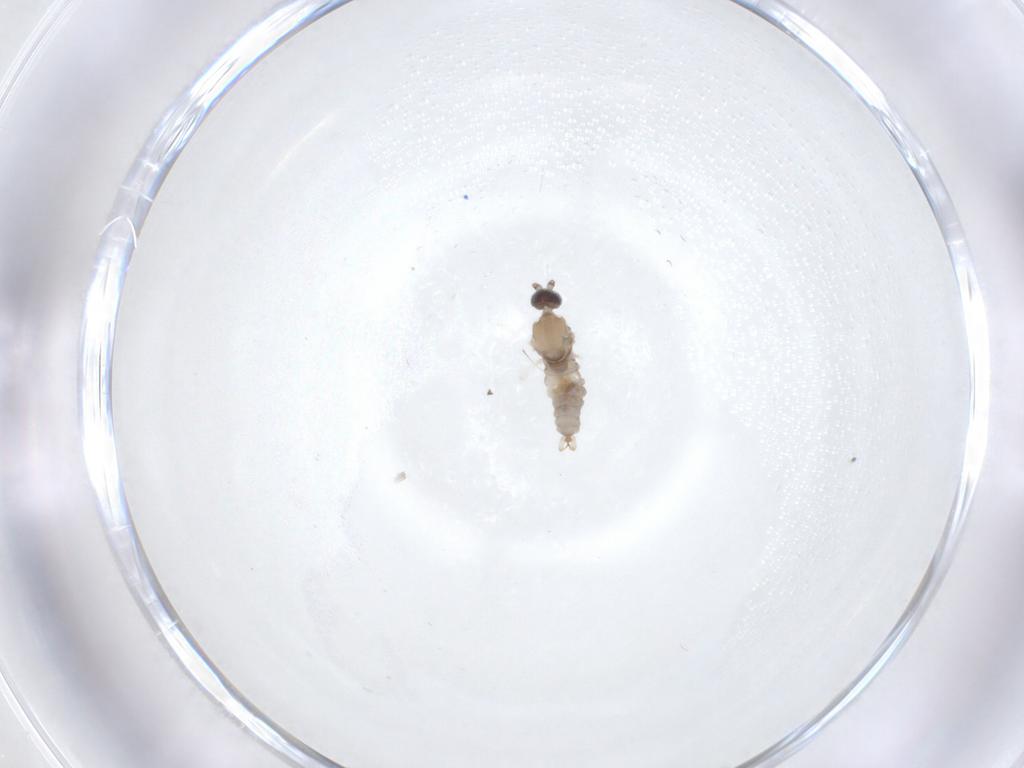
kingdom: Animalia
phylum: Arthropoda
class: Insecta
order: Diptera
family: Cecidomyiidae
